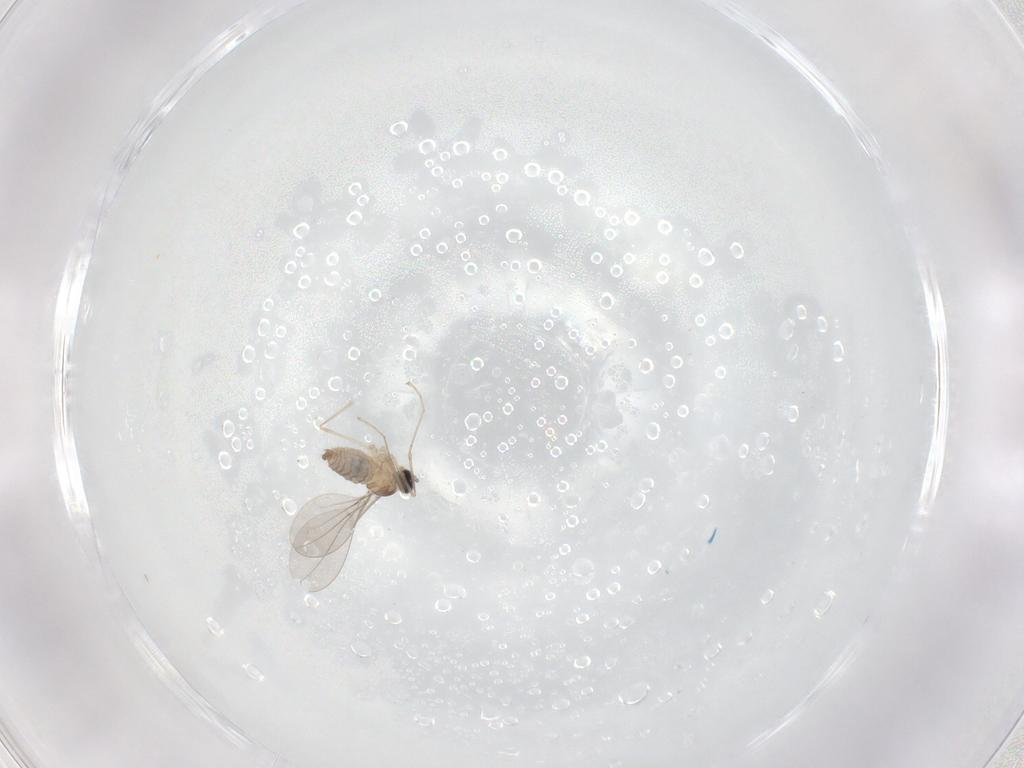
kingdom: Animalia
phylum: Arthropoda
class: Insecta
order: Diptera
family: Cecidomyiidae
